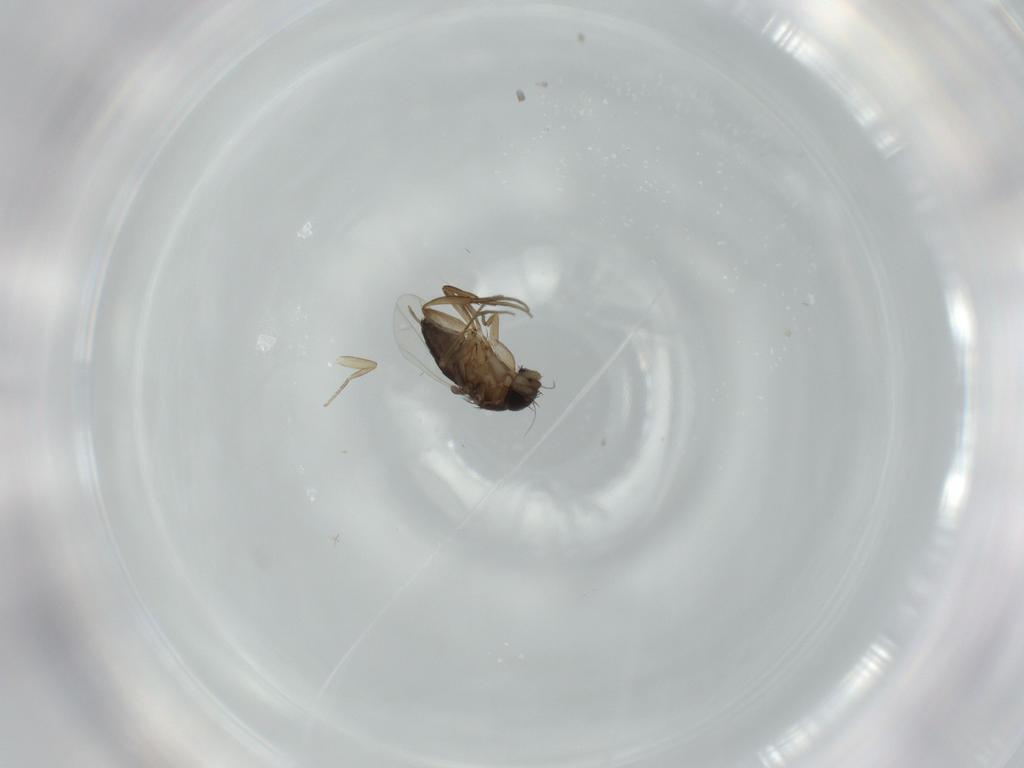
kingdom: Animalia
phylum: Arthropoda
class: Insecta
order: Diptera
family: Phoridae
